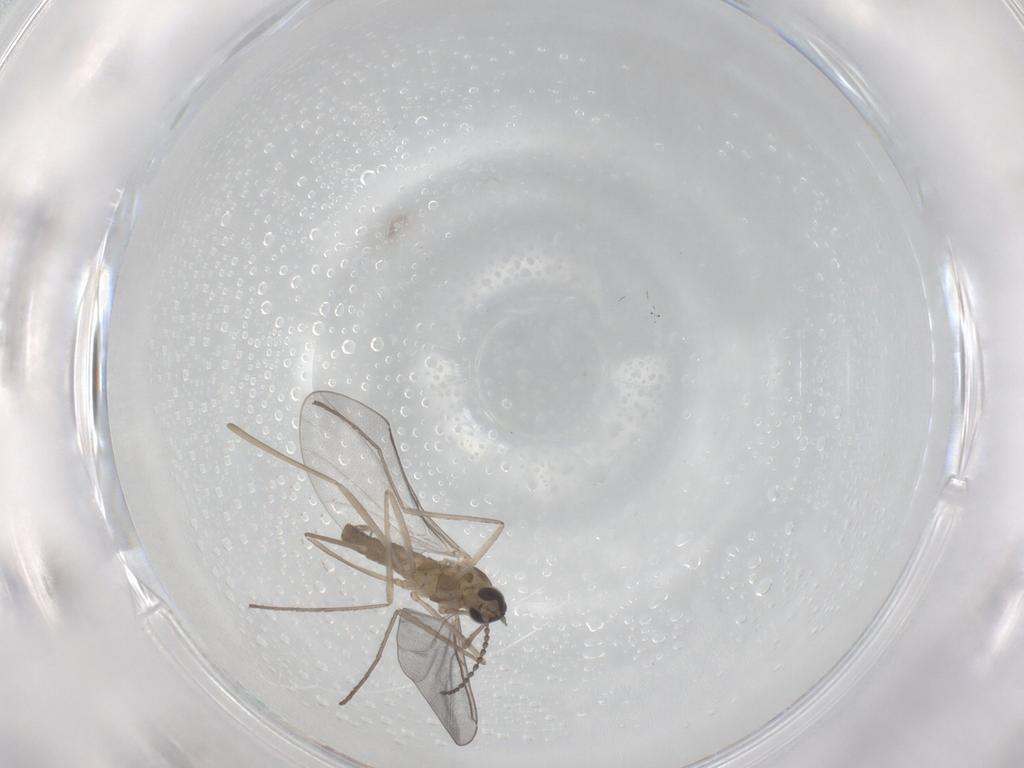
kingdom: Animalia
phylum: Arthropoda
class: Insecta
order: Diptera
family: Cecidomyiidae
